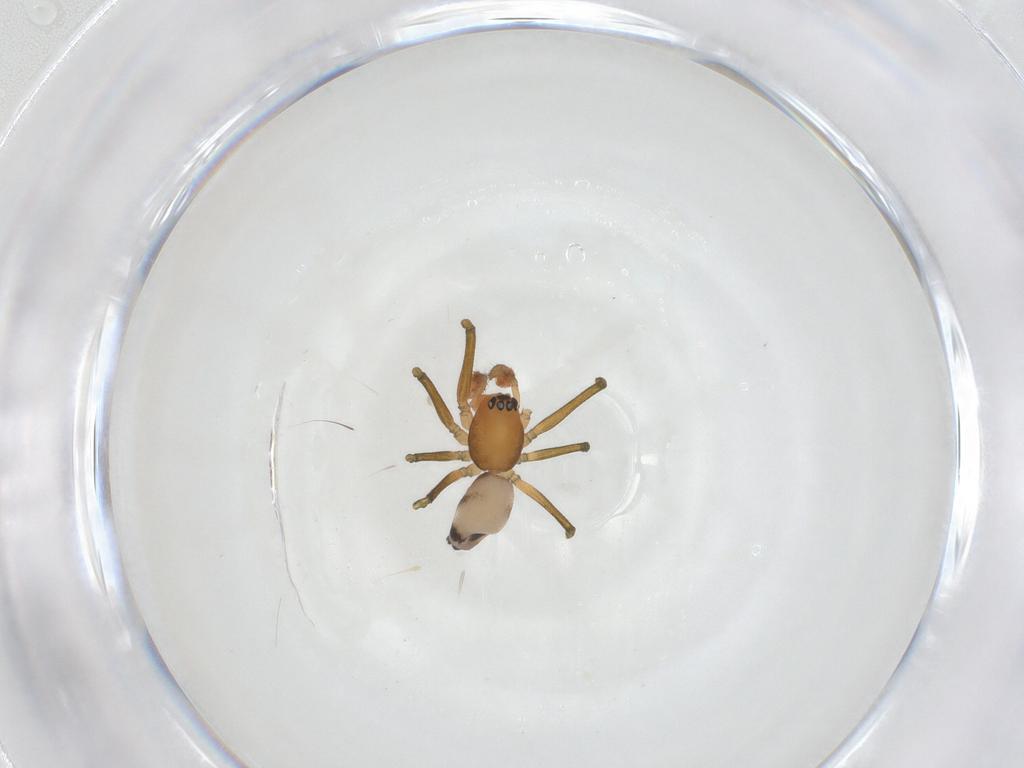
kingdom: Animalia
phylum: Arthropoda
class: Arachnida
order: Araneae
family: Linyphiidae
